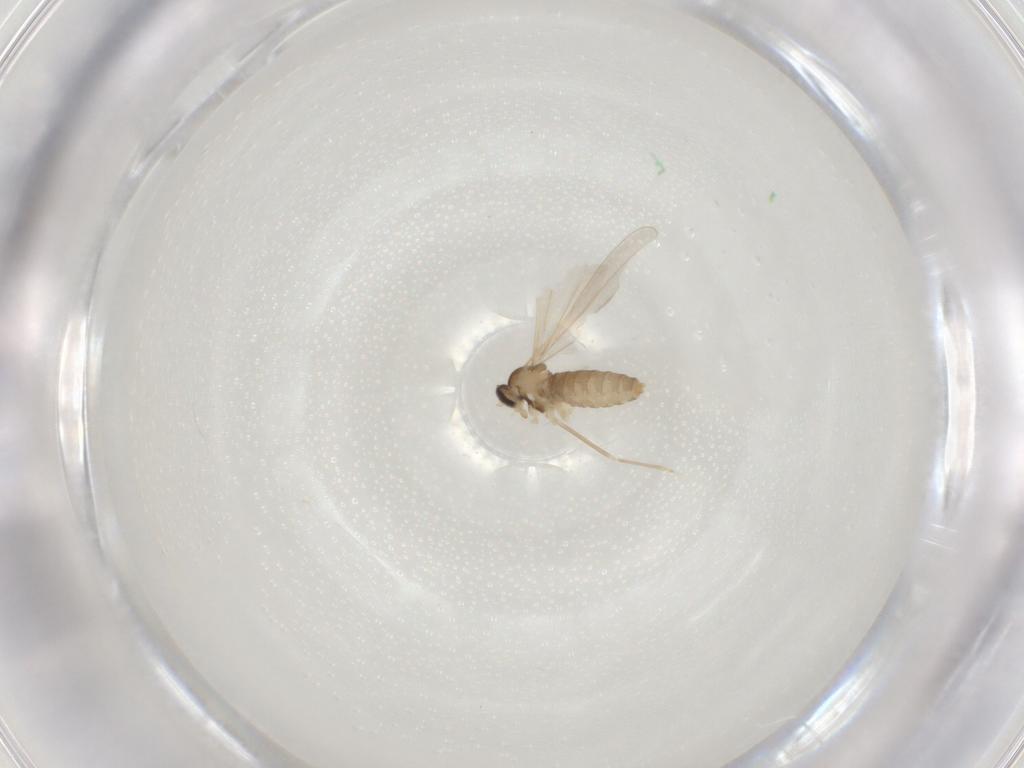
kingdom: Animalia
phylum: Arthropoda
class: Insecta
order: Diptera
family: Cecidomyiidae
